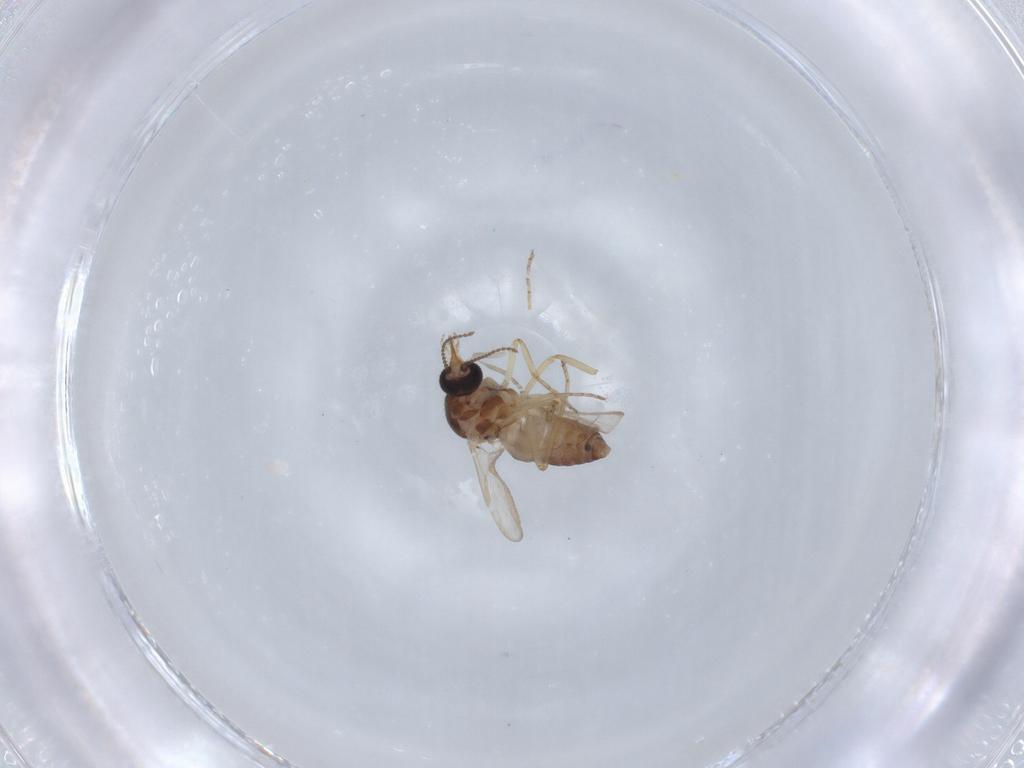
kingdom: Animalia
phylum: Arthropoda
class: Insecta
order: Diptera
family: Ceratopogonidae
